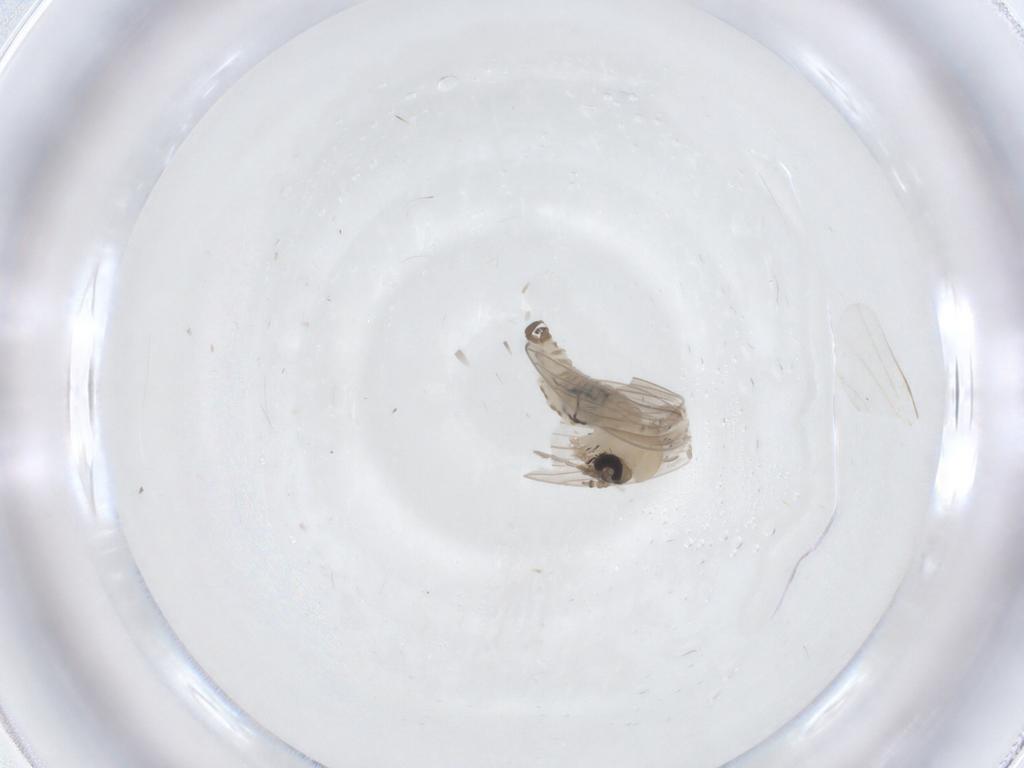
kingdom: Animalia
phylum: Arthropoda
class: Insecta
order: Diptera
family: Psychodidae
